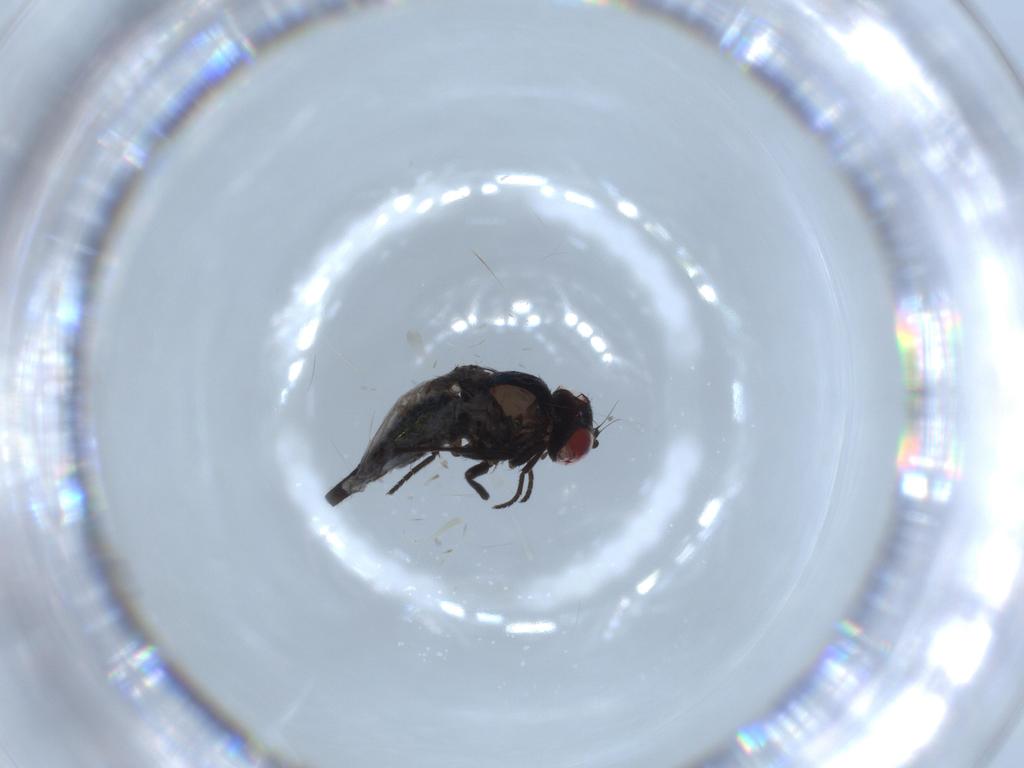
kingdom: Animalia
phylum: Arthropoda
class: Insecta
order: Diptera
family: Agromyzidae
